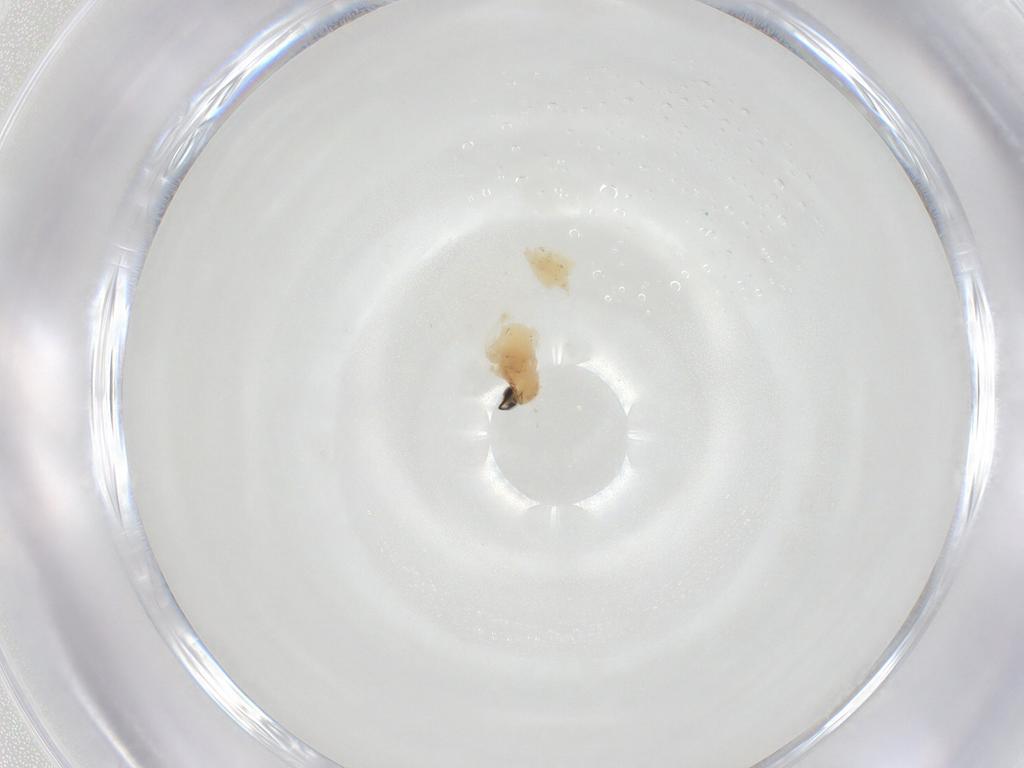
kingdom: Animalia
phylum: Arthropoda
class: Insecta
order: Diptera
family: Cecidomyiidae
